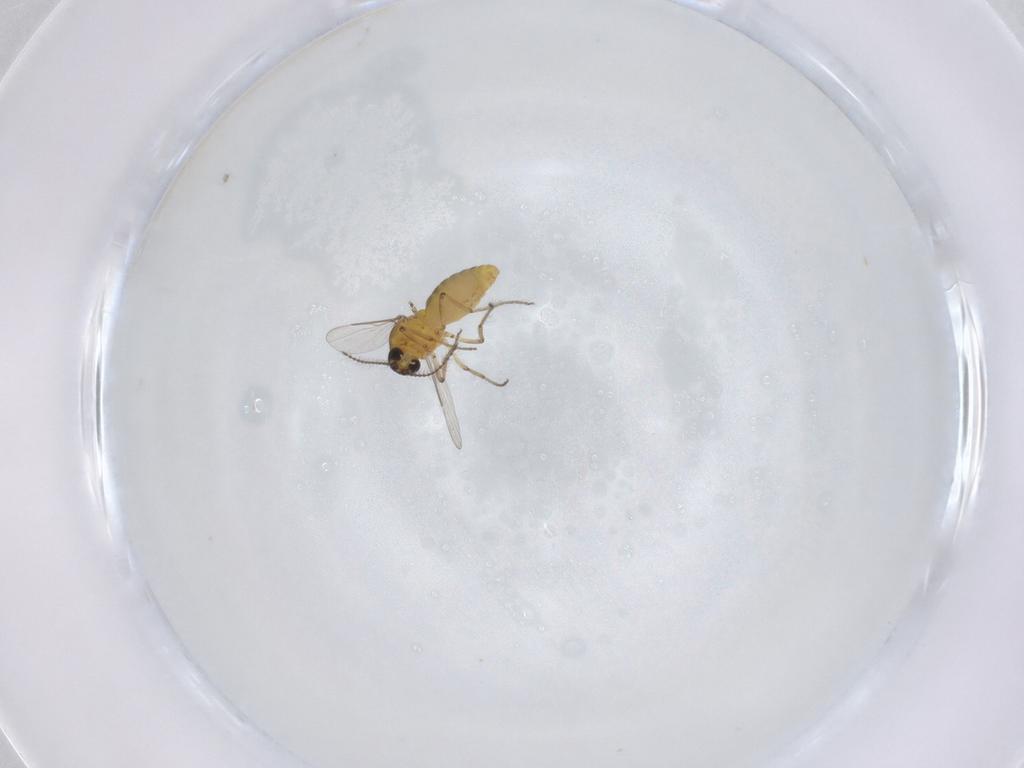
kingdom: Animalia
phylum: Arthropoda
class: Insecta
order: Diptera
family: Ceratopogonidae
